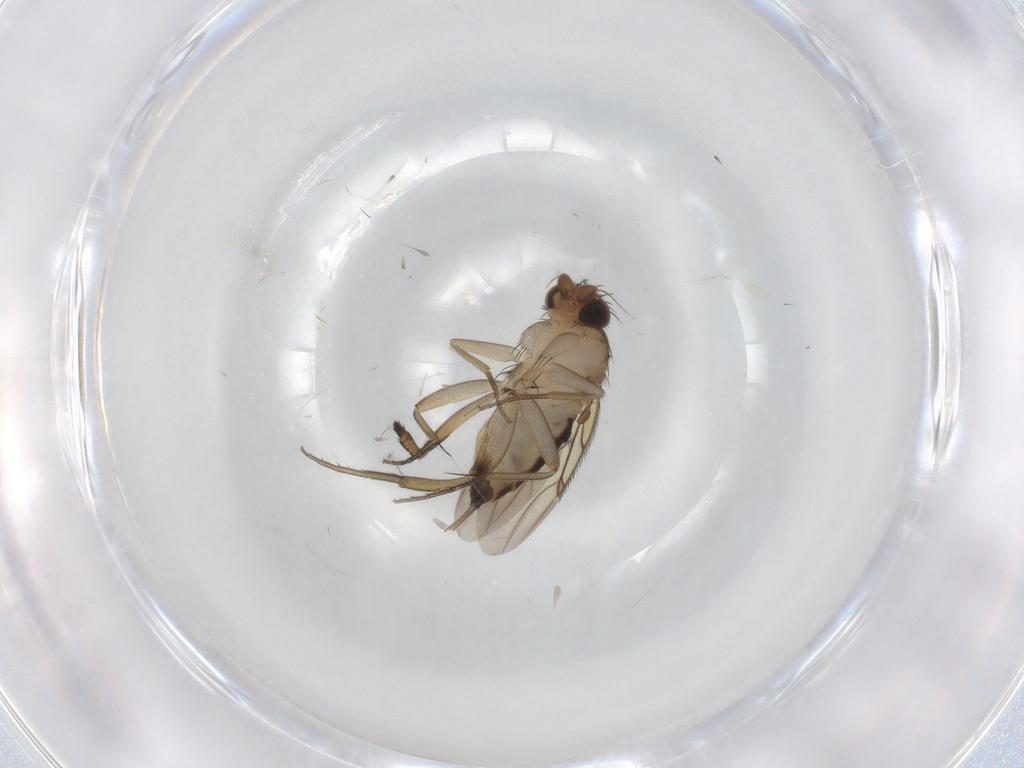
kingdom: Animalia
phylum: Arthropoda
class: Insecta
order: Diptera
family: Phoridae
